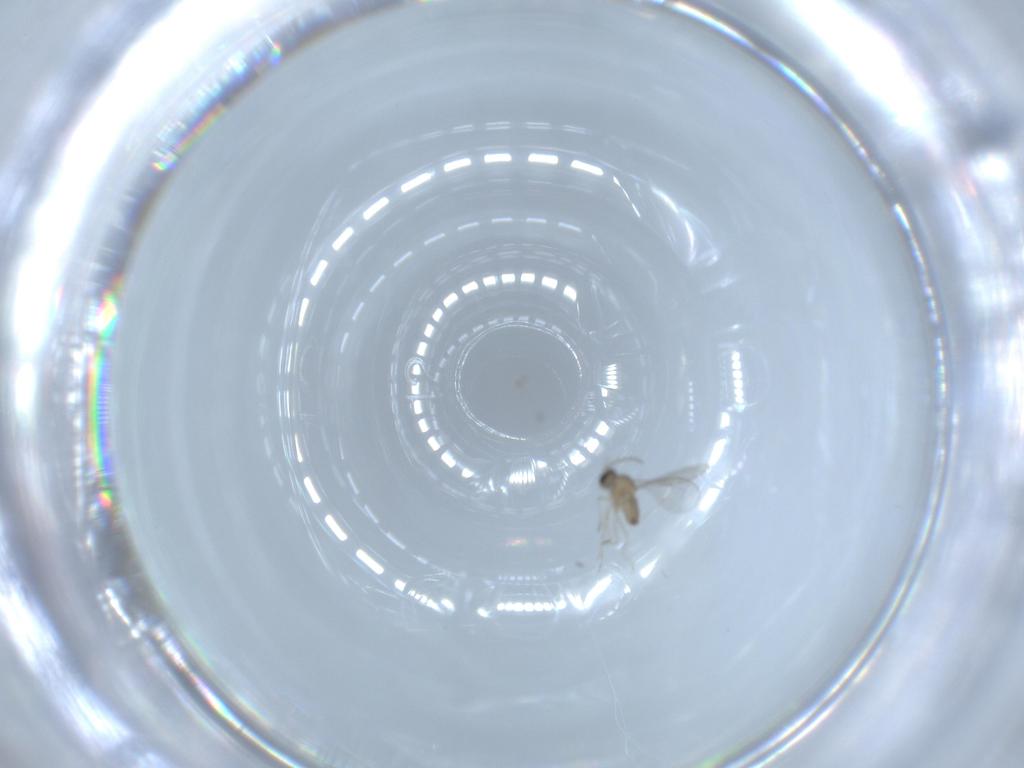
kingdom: Animalia
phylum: Arthropoda
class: Insecta
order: Diptera
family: Cecidomyiidae
